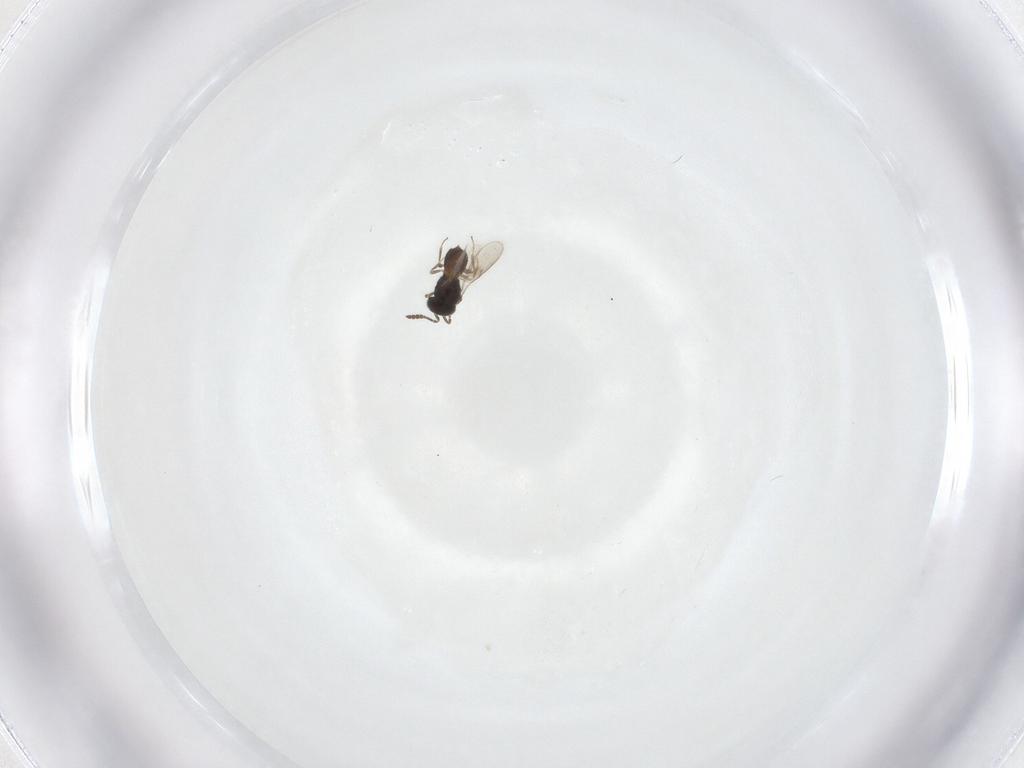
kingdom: Animalia
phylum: Arthropoda
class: Insecta
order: Hymenoptera
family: Scelionidae
